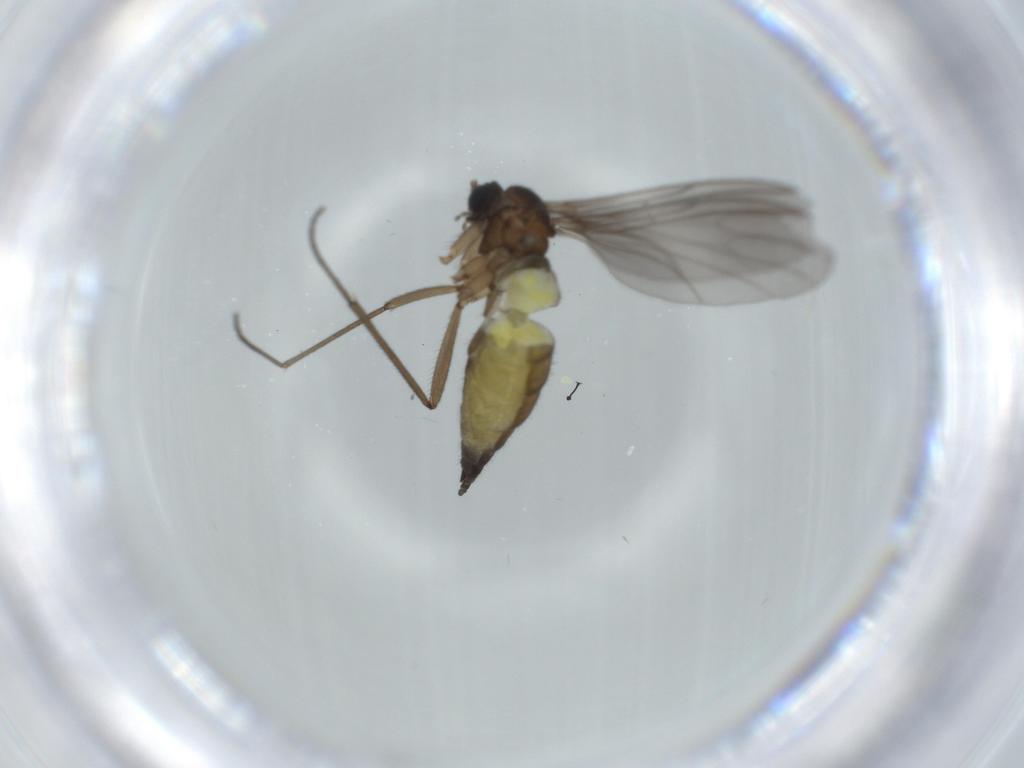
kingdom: Animalia
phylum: Arthropoda
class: Insecta
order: Diptera
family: Sciaridae
